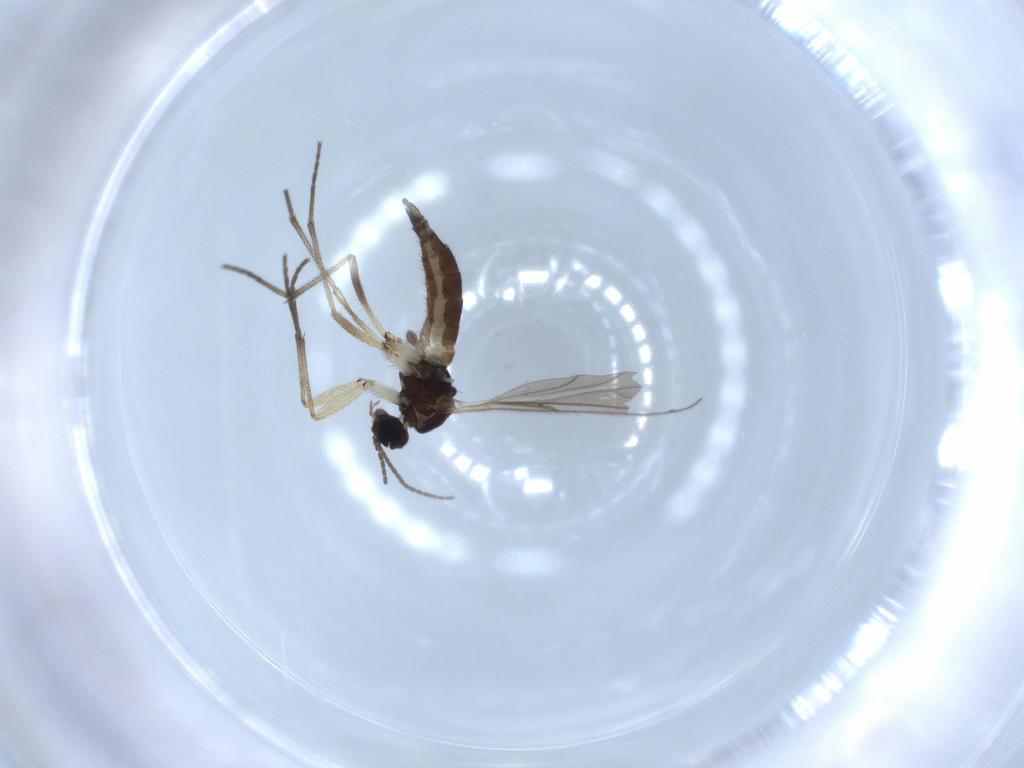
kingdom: Animalia
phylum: Arthropoda
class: Insecta
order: Diptera
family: Sciaridae
